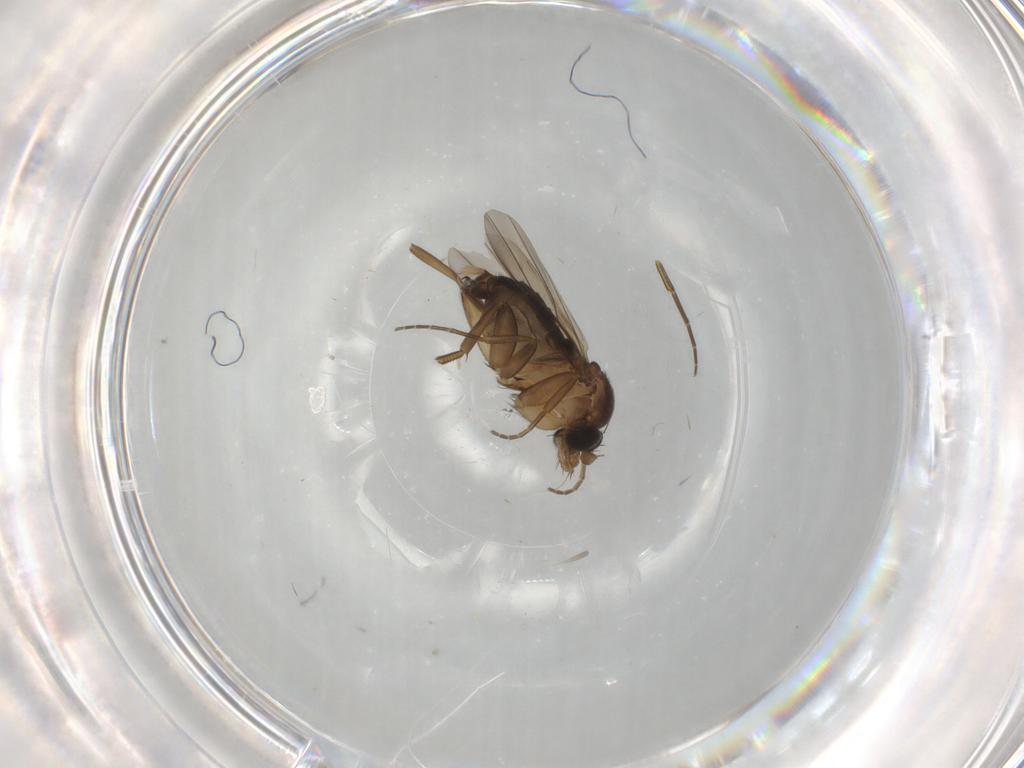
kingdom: Animalia
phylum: Arthropoda
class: Insecta
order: Diptera
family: Phoridae
